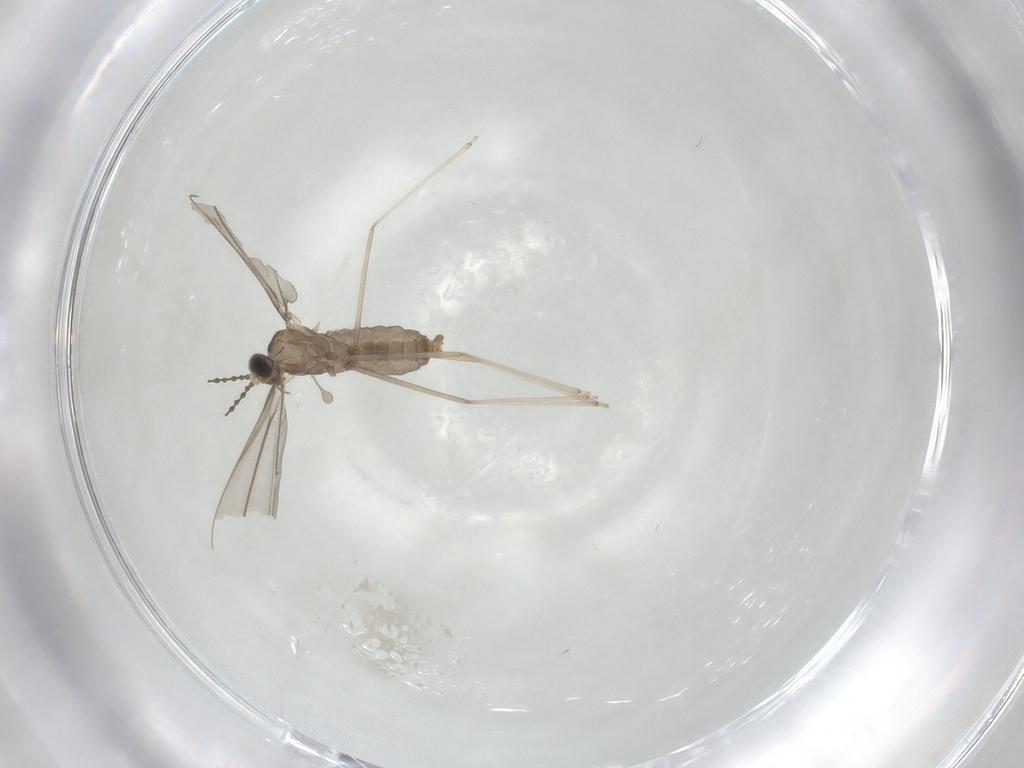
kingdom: Animalia
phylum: Arthropoda
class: Insecta
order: Diptera
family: Cecidomyiidae
